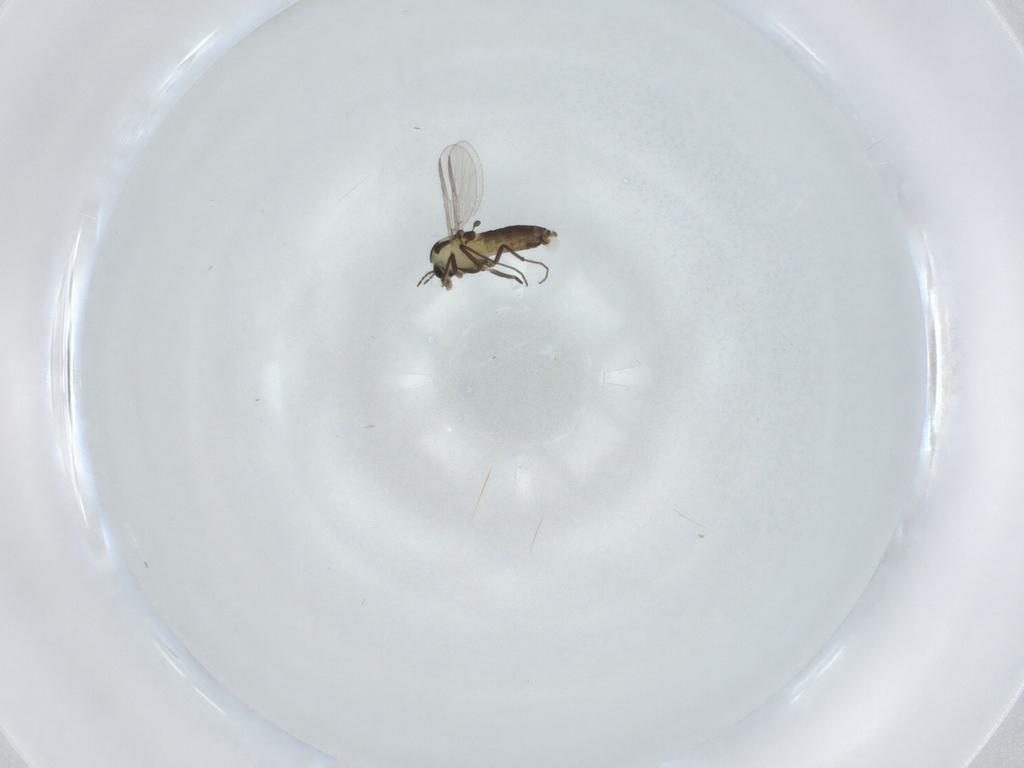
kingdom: Animalia
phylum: Arthropoda
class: Insecta
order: Diptera
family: Chironomidae
